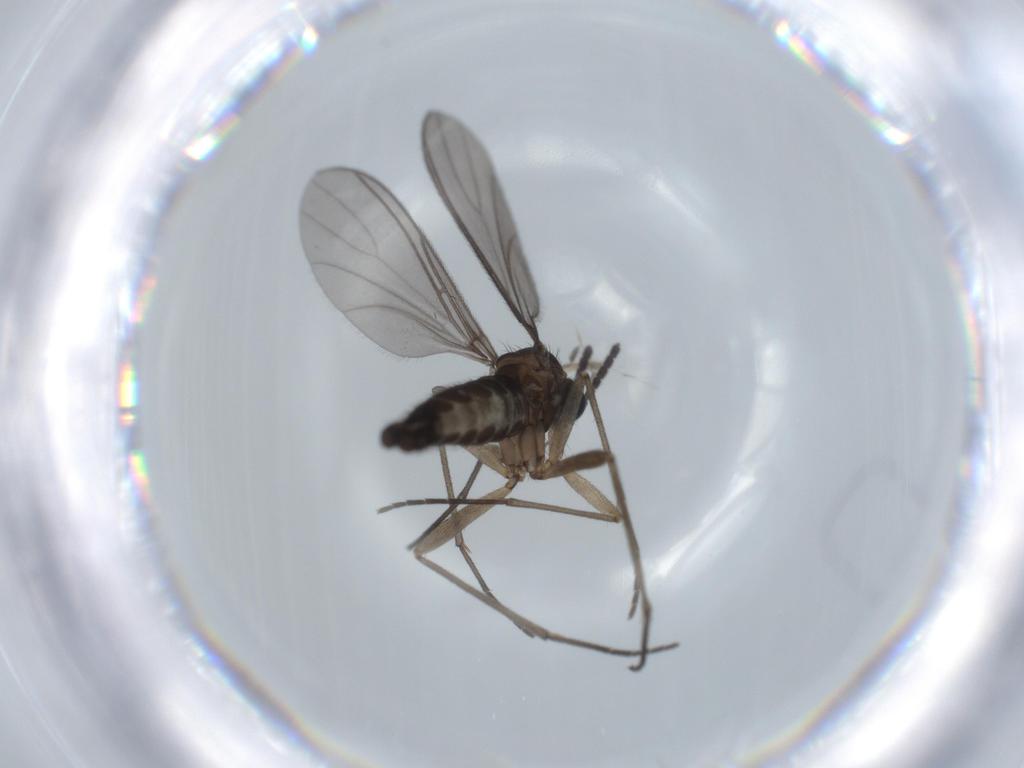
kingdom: Animalia
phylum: Arthropoda
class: Insecta
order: Diptera
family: Sciaridae
